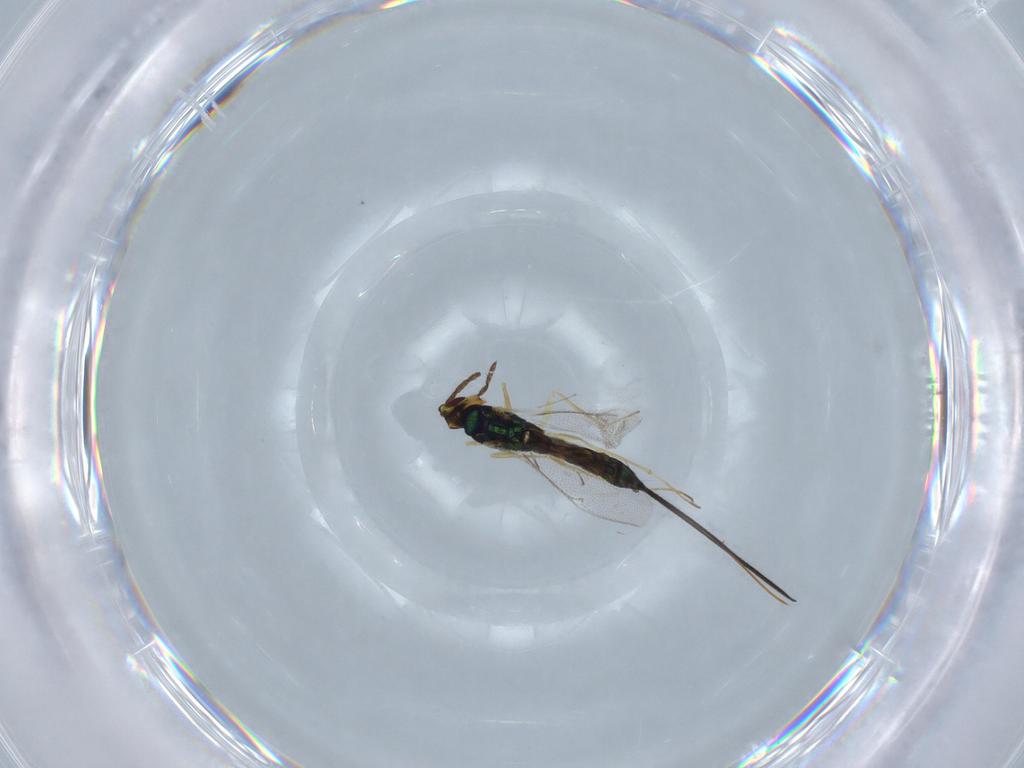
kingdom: Animalia
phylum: Arthropoda
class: Insecta
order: Hymenoptera
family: Eulophidae
